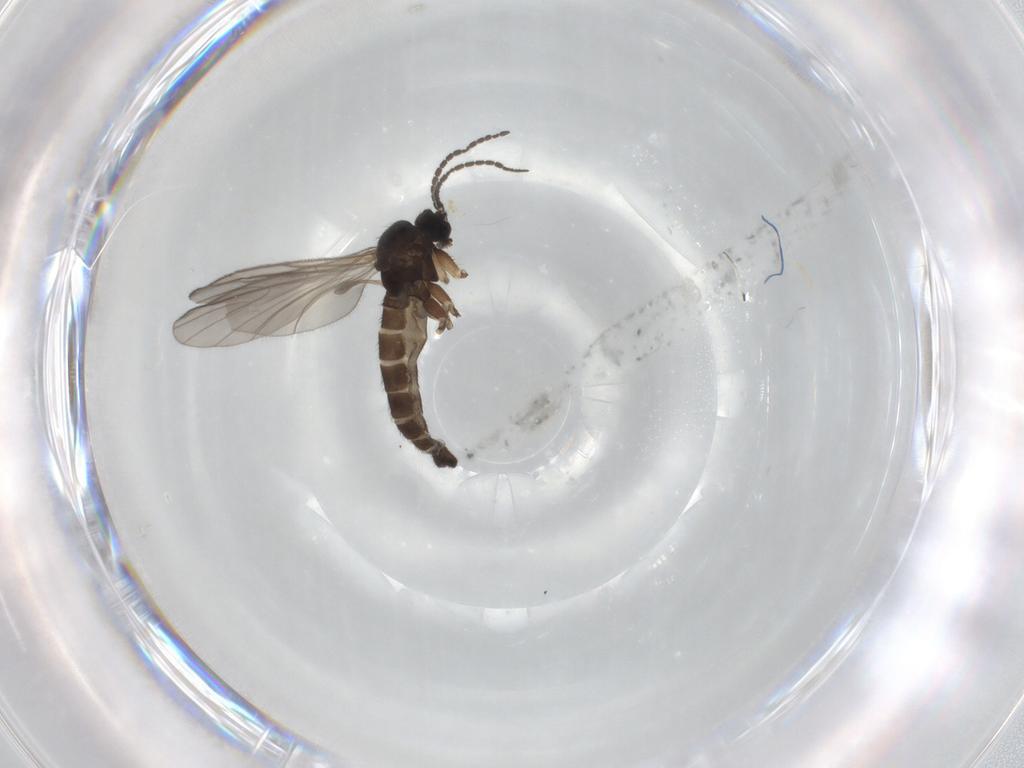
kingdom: Animalia
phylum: Arthropoda
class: Insecta
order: Diptera
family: Sciaridae
